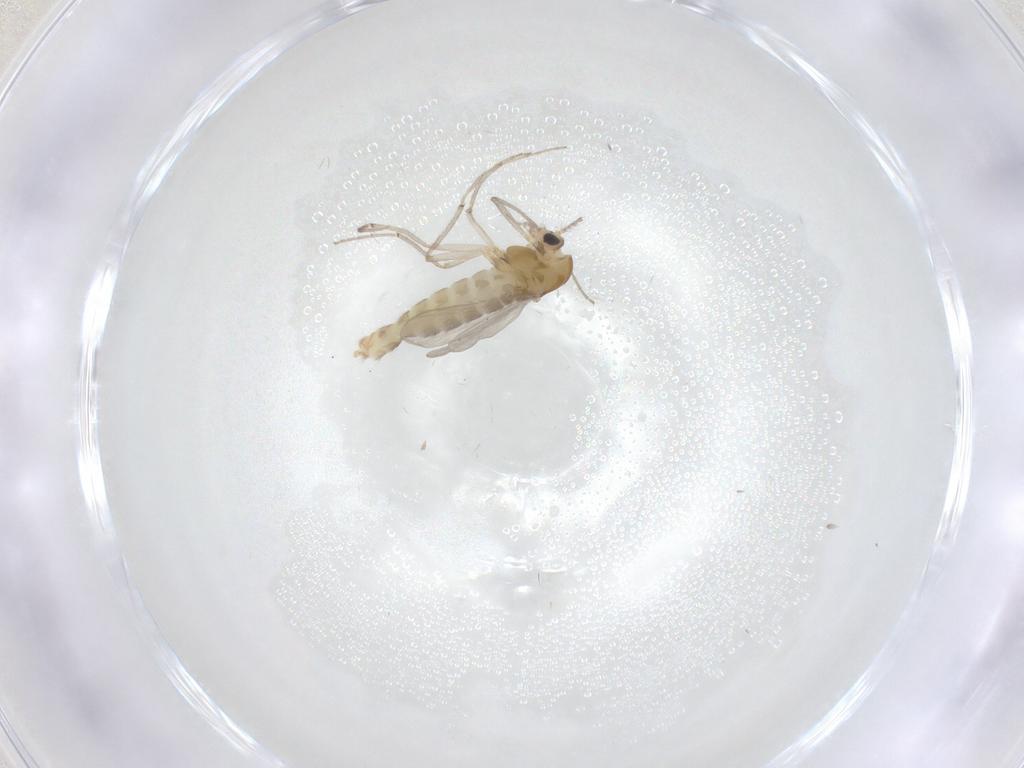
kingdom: Animalia
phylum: Arthropoda
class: Insecta
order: Diptera
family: Chironomidae
